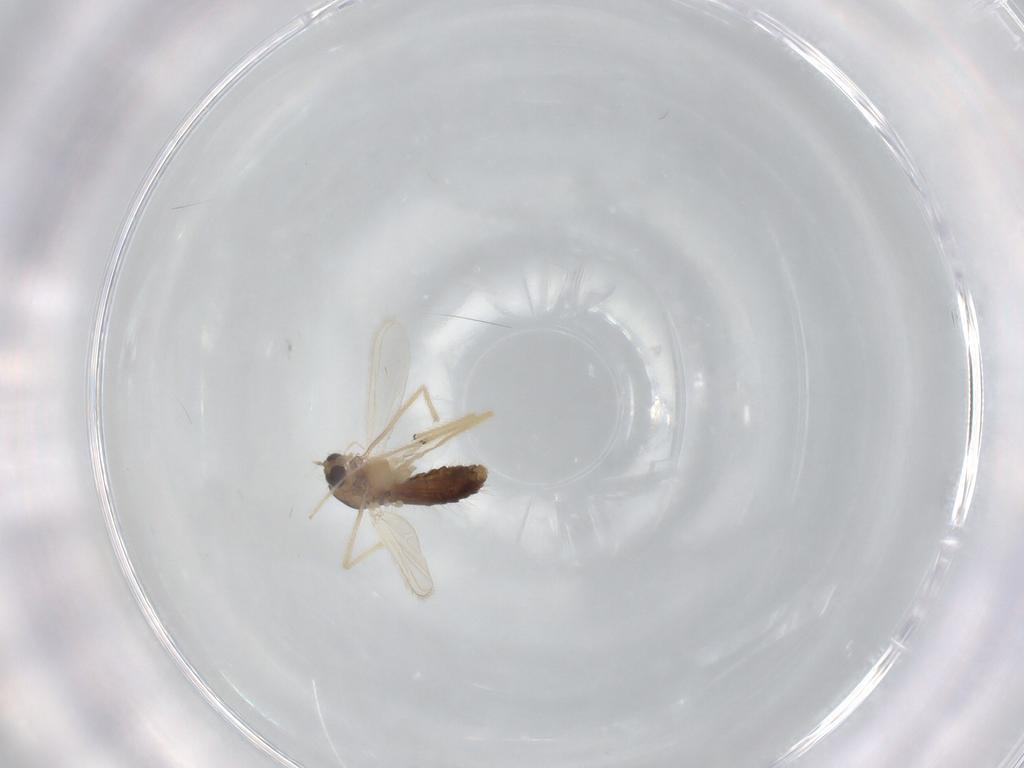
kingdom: Animalia
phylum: Arthropoda
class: Insecta
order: Diptera
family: Chironomidae
